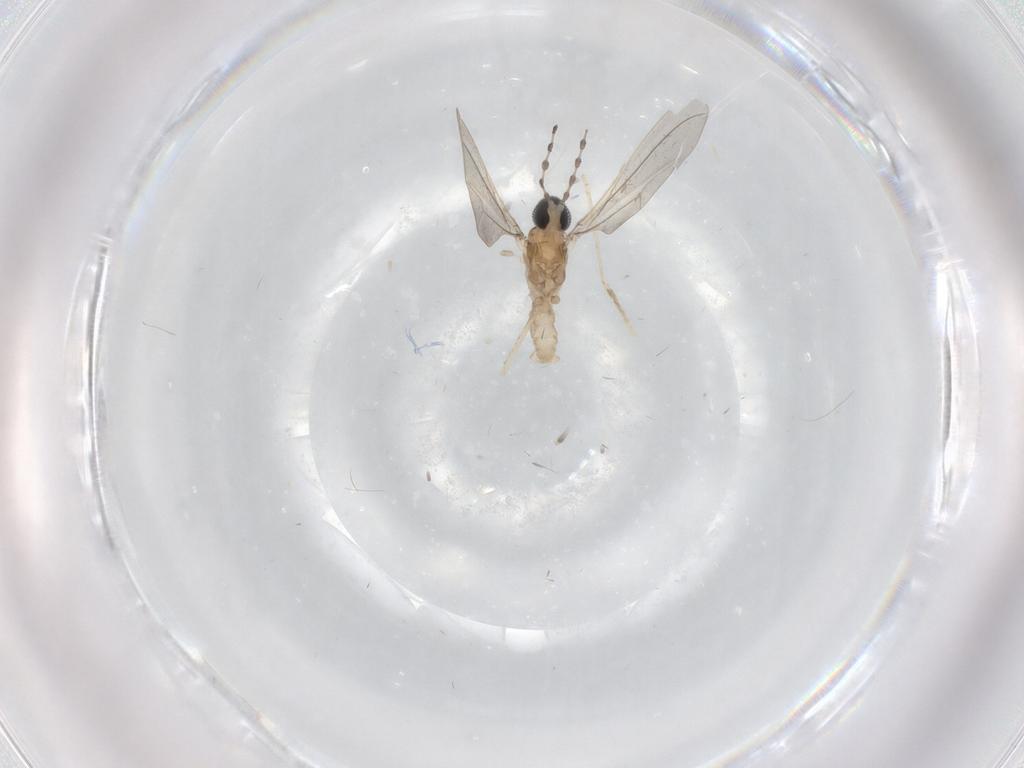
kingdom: Animalia
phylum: Arthropoda
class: Insecta
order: Diptera
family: Cecidomyiidae
